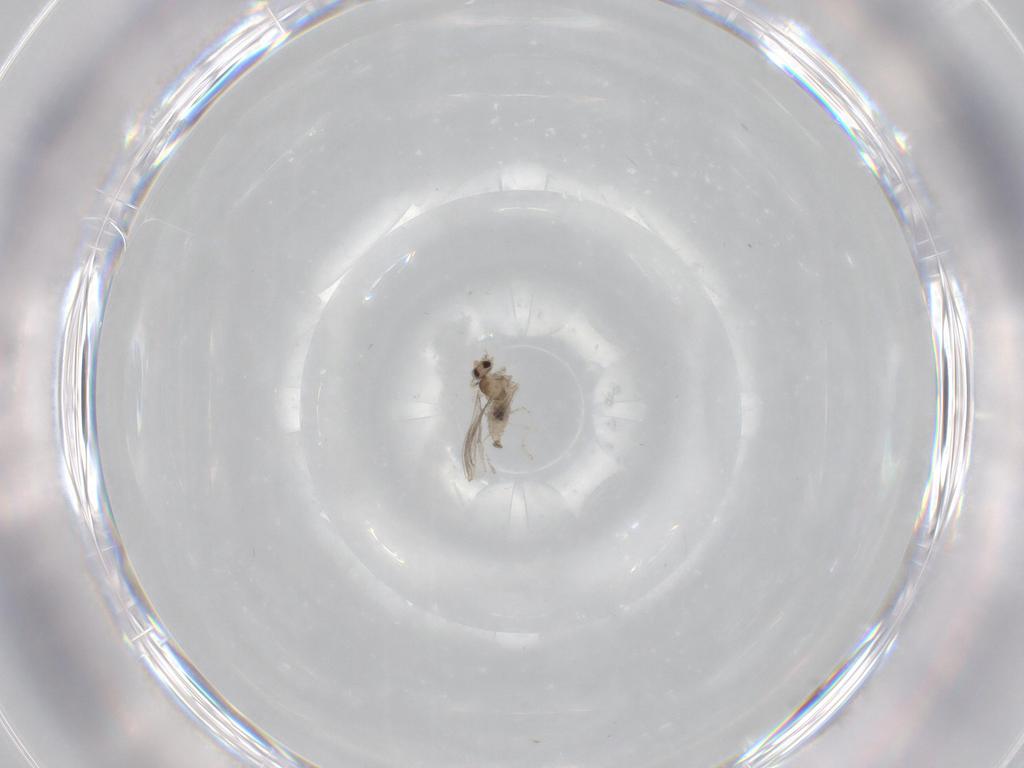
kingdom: Animalia
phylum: Arthropoda
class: Insecta
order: Diptera
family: Cecidomyiidae
